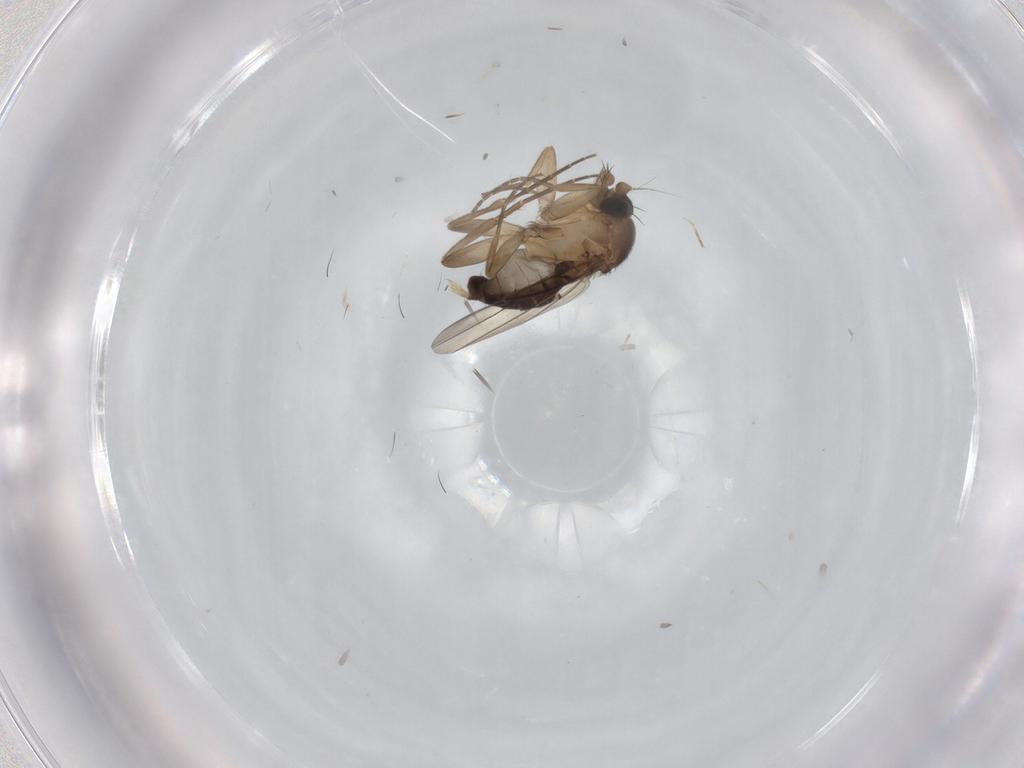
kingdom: Animalia
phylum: Arthropoda
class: Insecta
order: Diptera
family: Phoridae
